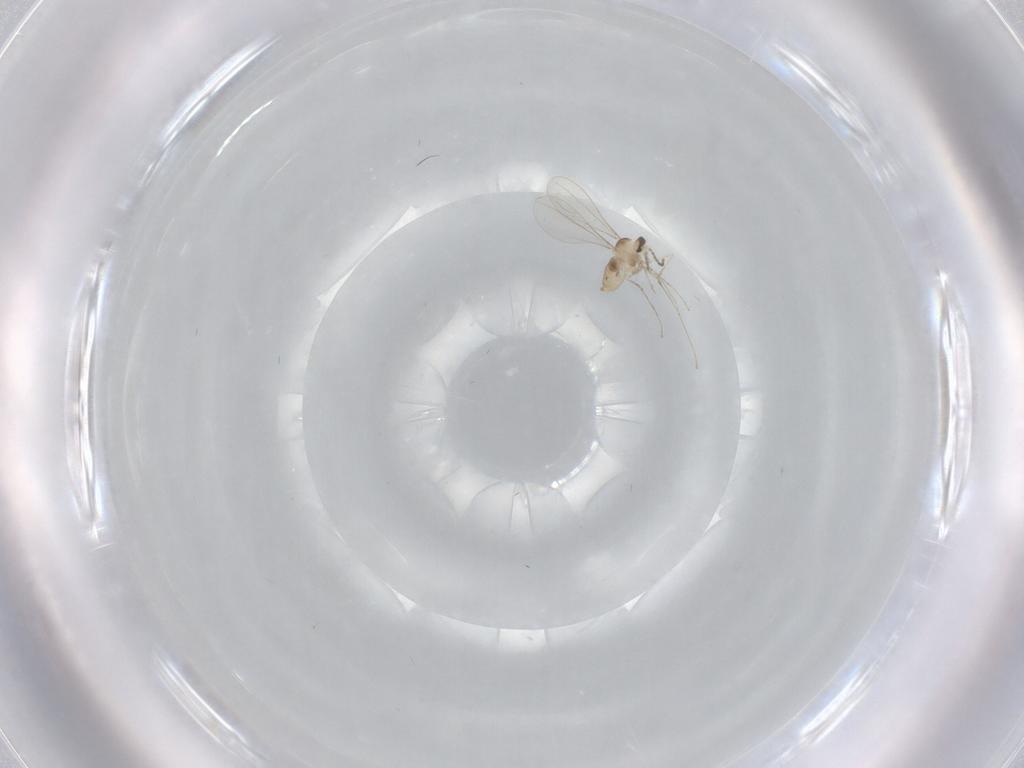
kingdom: Animalia
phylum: Arthropoda
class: Insecta
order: Diptera
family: Cecidomyiidae
